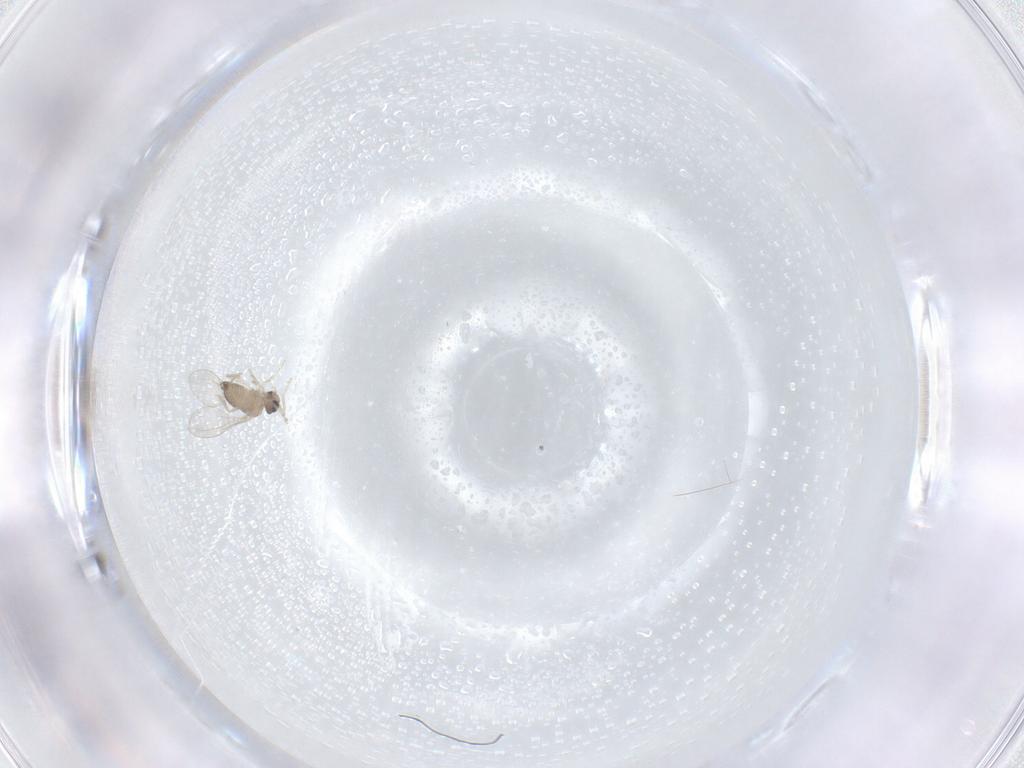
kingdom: Animalia
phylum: Arthropoda
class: Insecta
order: Diptera
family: Cecidomyiidae
